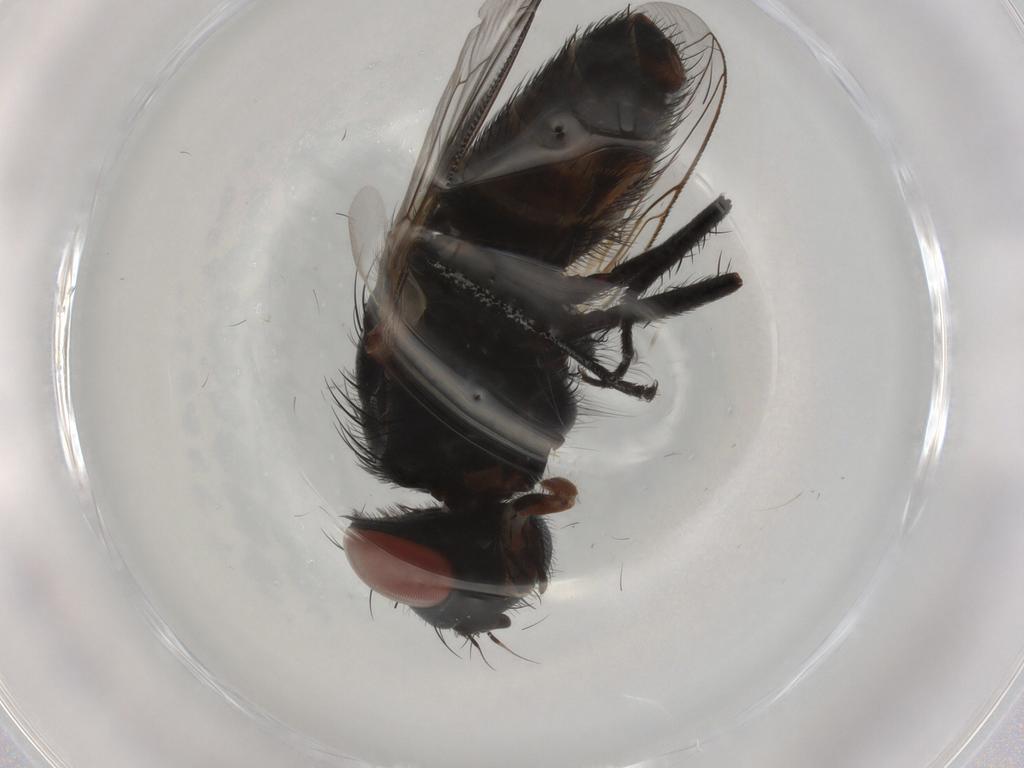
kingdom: Animalia
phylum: Arthropoda
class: Insecta
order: Diptera
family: Sarcophagidae
